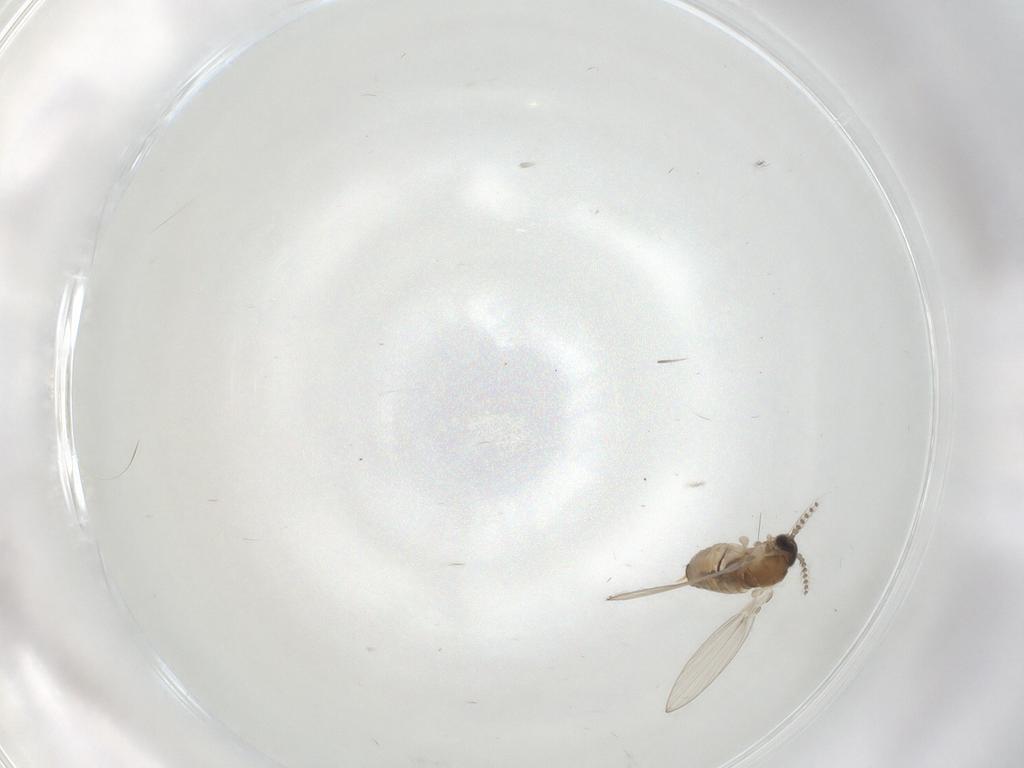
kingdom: Animalia
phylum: Arthropoda
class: Insecta
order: Diptera
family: Psychodidae
